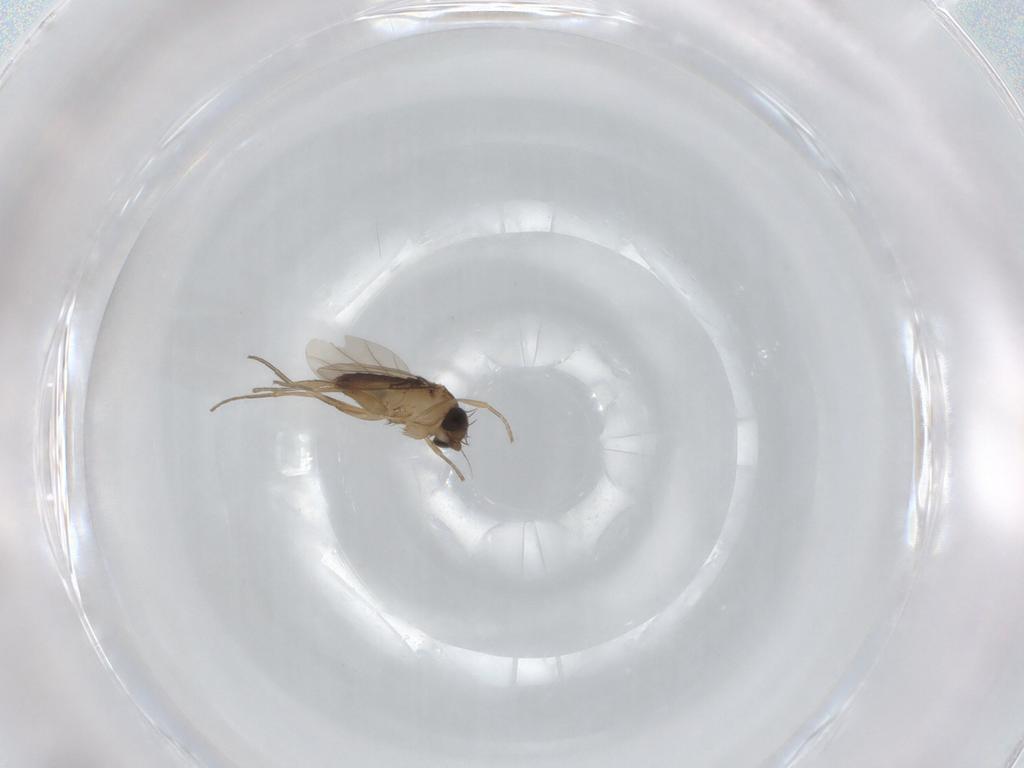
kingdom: Animalia
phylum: Arthropoda
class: Insecta
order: Diptera
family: Phoridae
